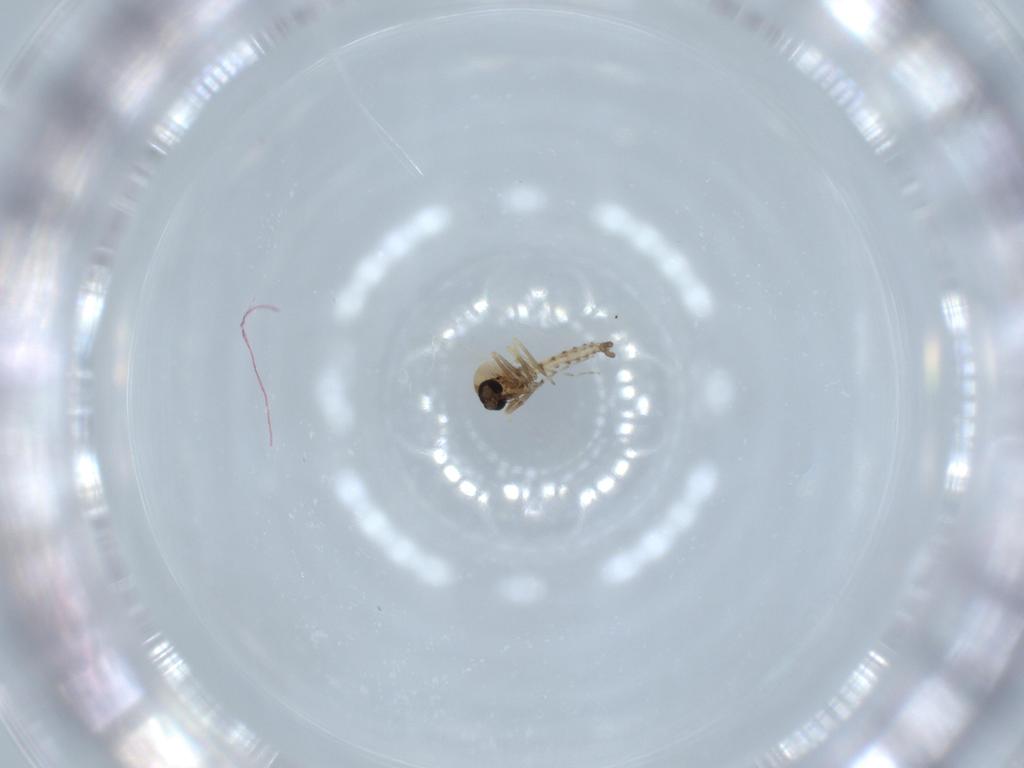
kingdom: Animalia
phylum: Arthropoda
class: Insecta
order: Diptera
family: Ceratopogonidae
